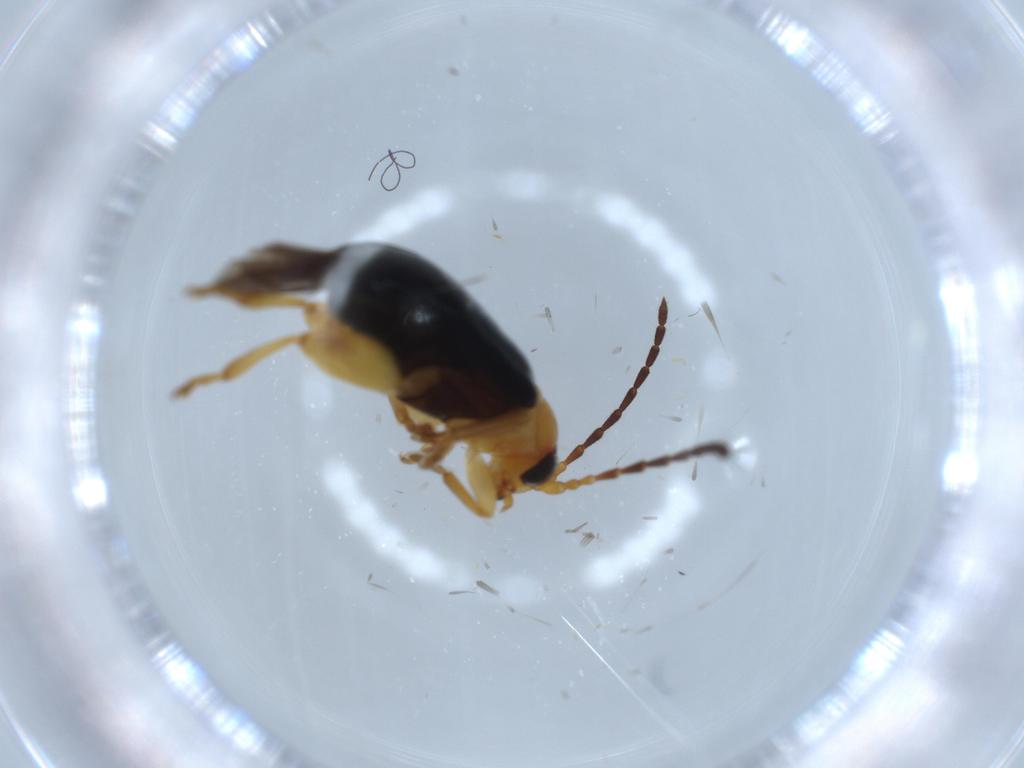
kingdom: Animalia
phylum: Arthropoda
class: Insecta
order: Coleoptera
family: Chrysomelidae
